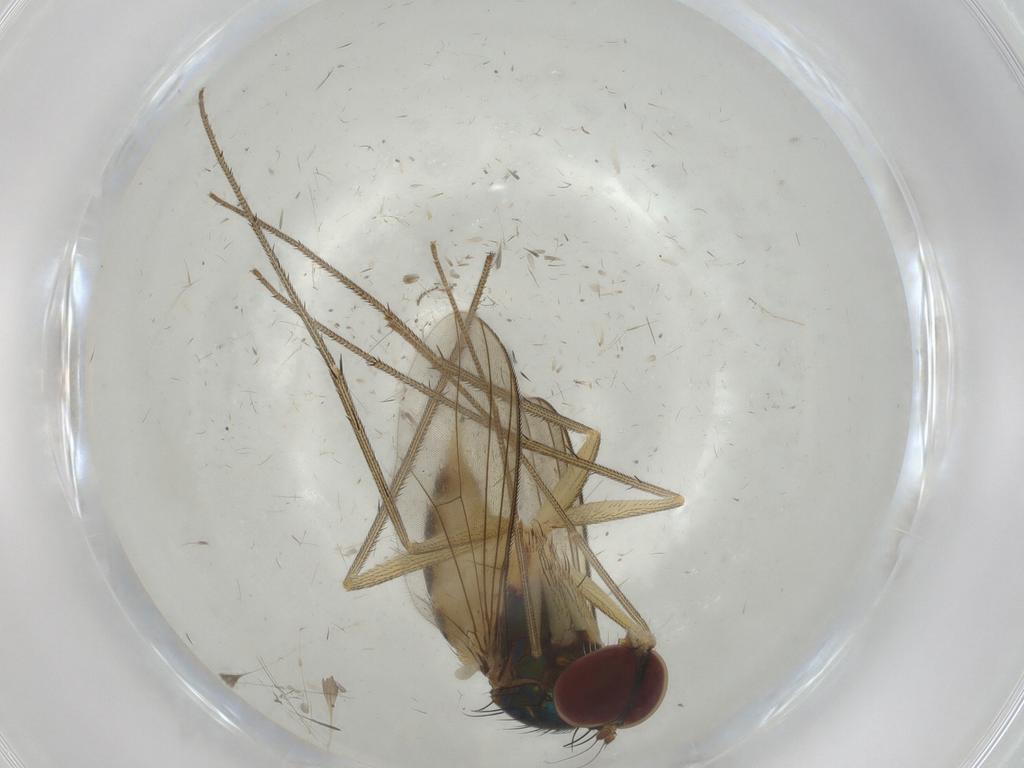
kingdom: Animalia
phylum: Arthropoda
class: Insecta
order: Diptera
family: Dolichopodidae
